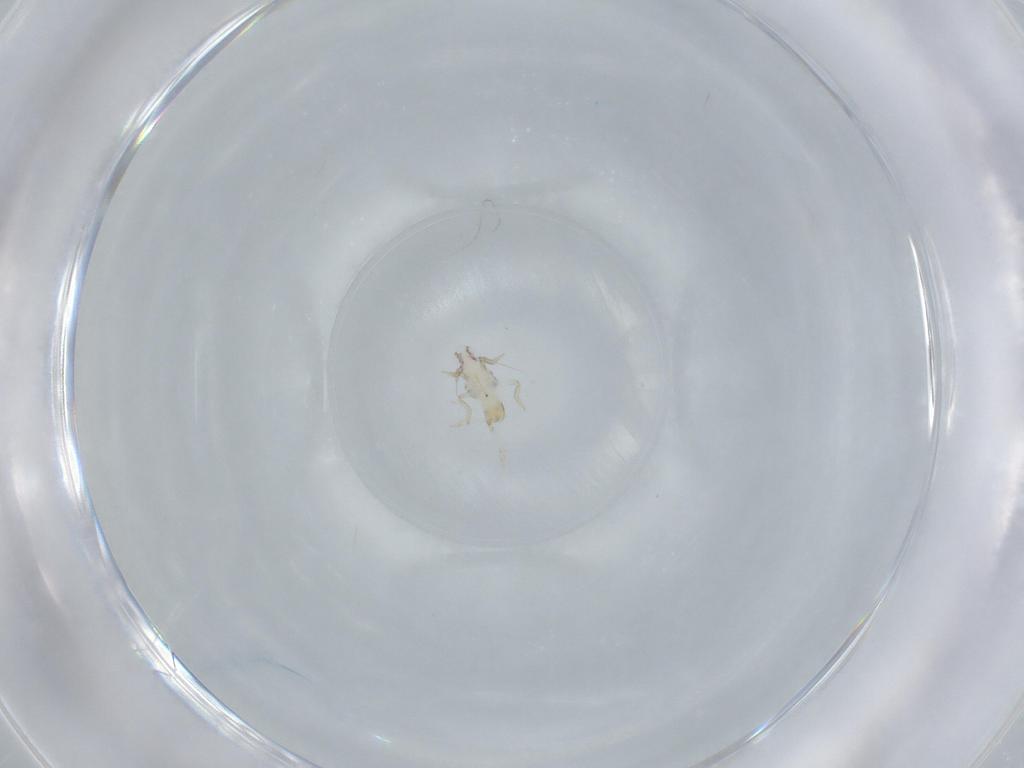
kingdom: Animalia
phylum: Arthropoda
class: Insecta
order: Hemiptera
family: Delphacidae
